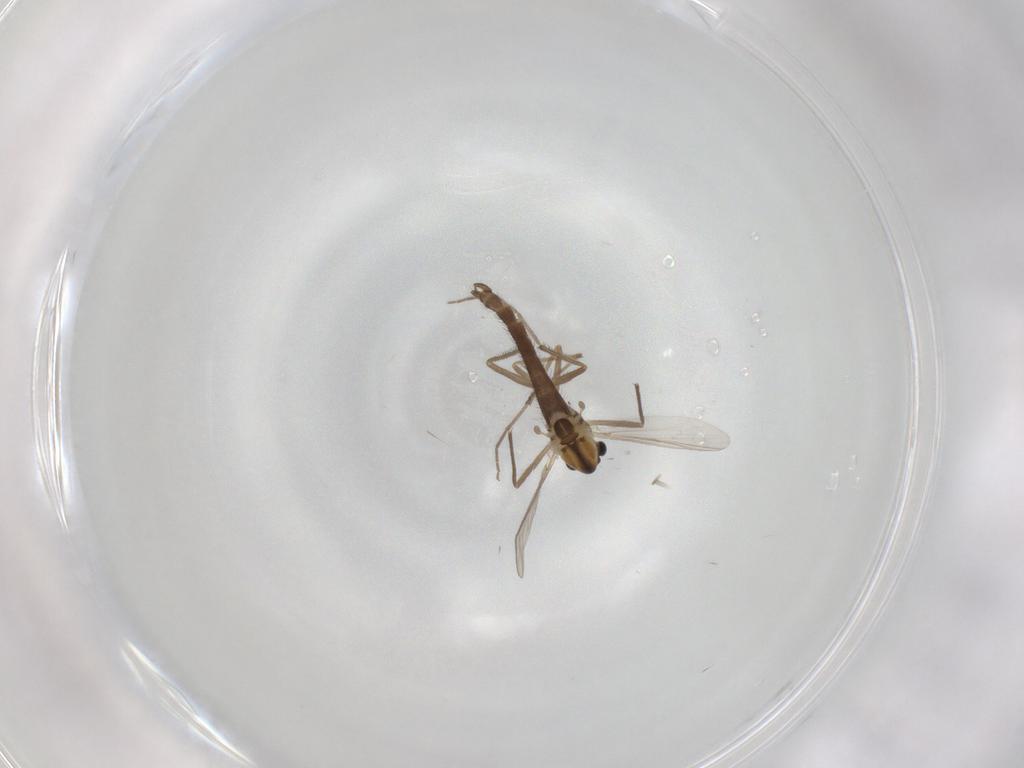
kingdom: Animalia
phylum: Arthropoda
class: Insecta
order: Diptera
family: Chironomidae
